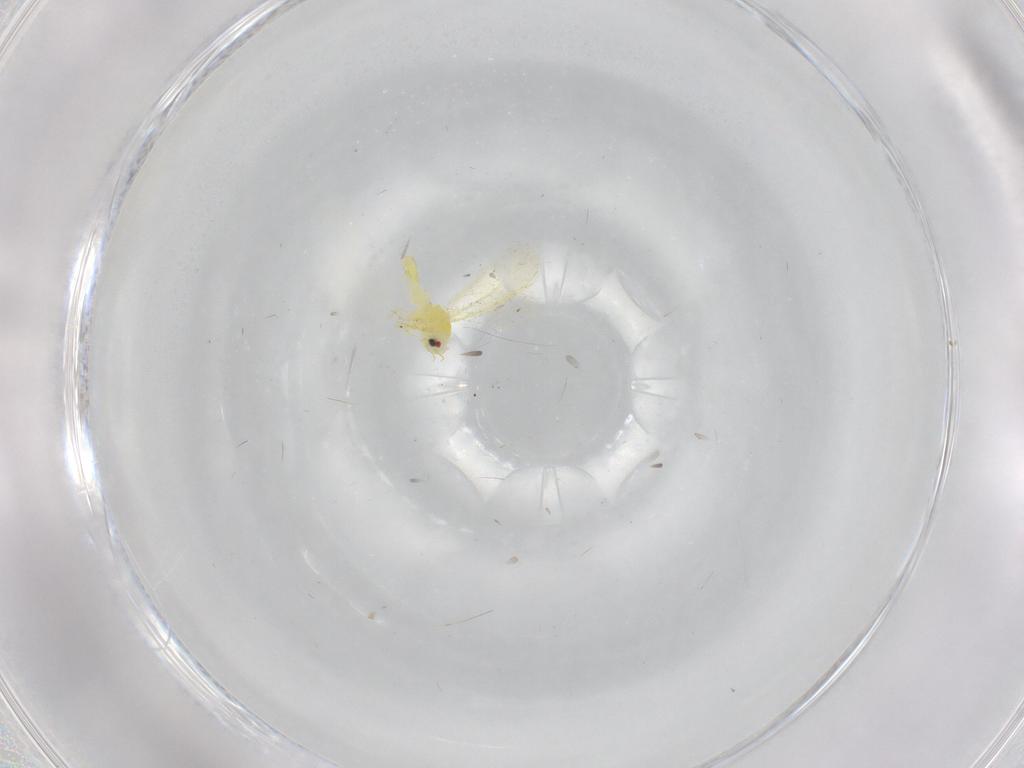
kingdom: Animalia
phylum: Arthropoda
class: Insecta
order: Hemiptera
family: Aleyrodidae
